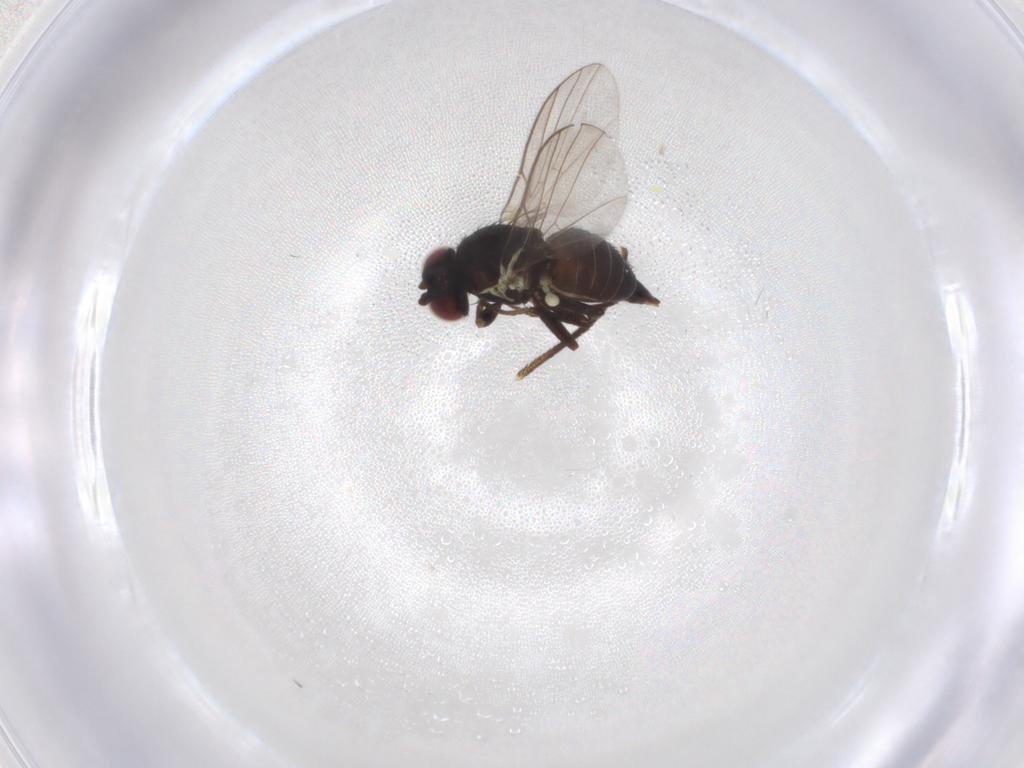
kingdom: Animalia
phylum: Arthropoda
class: Insecta
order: Diptera
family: Agromyzidae
